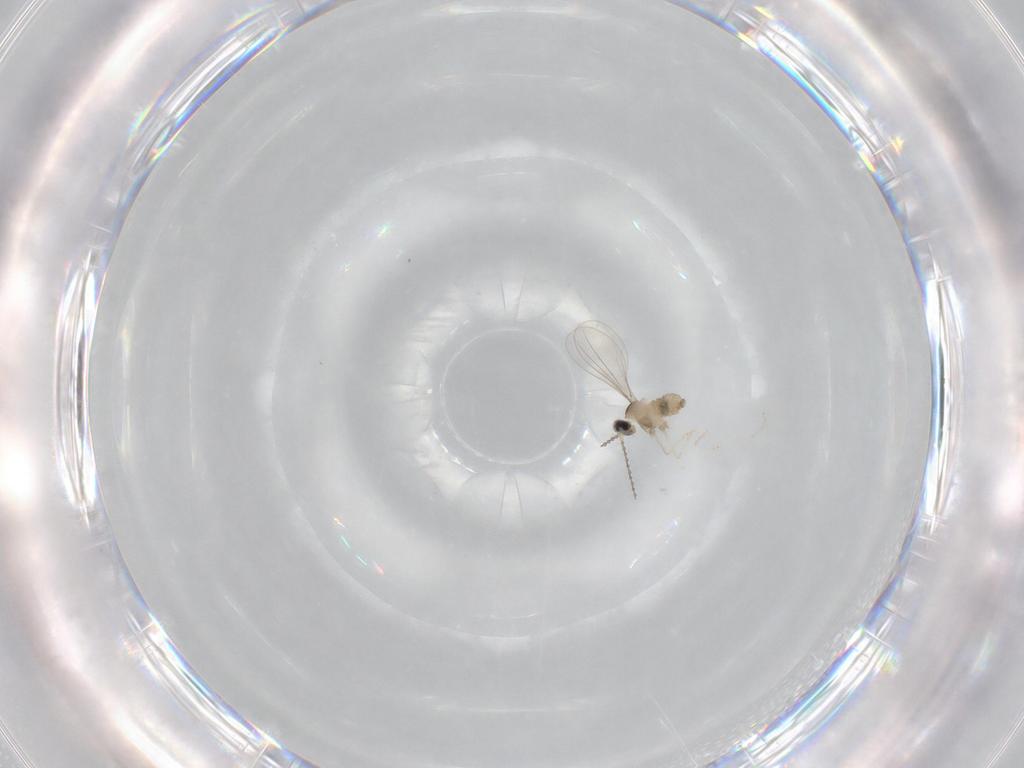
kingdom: Animalia
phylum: Arthropoda
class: Insecta
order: Diptera
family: Cecidomyiidae
